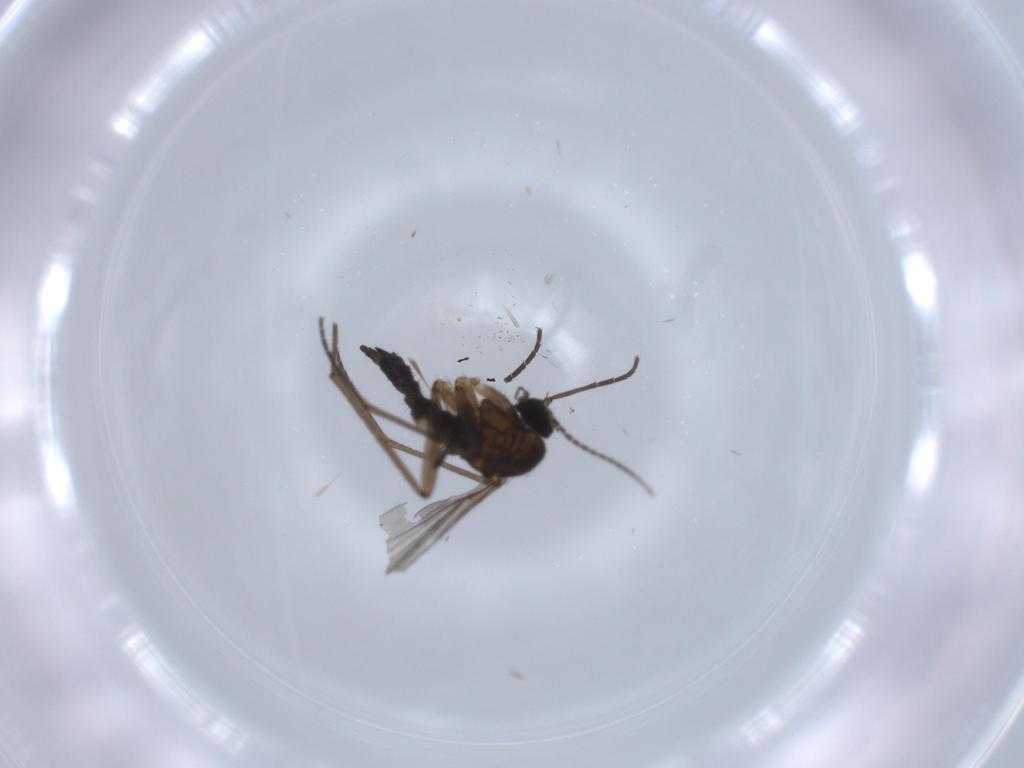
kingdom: Animalia
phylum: Arthropoda
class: Insecta
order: Diptera
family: Sciaridae
